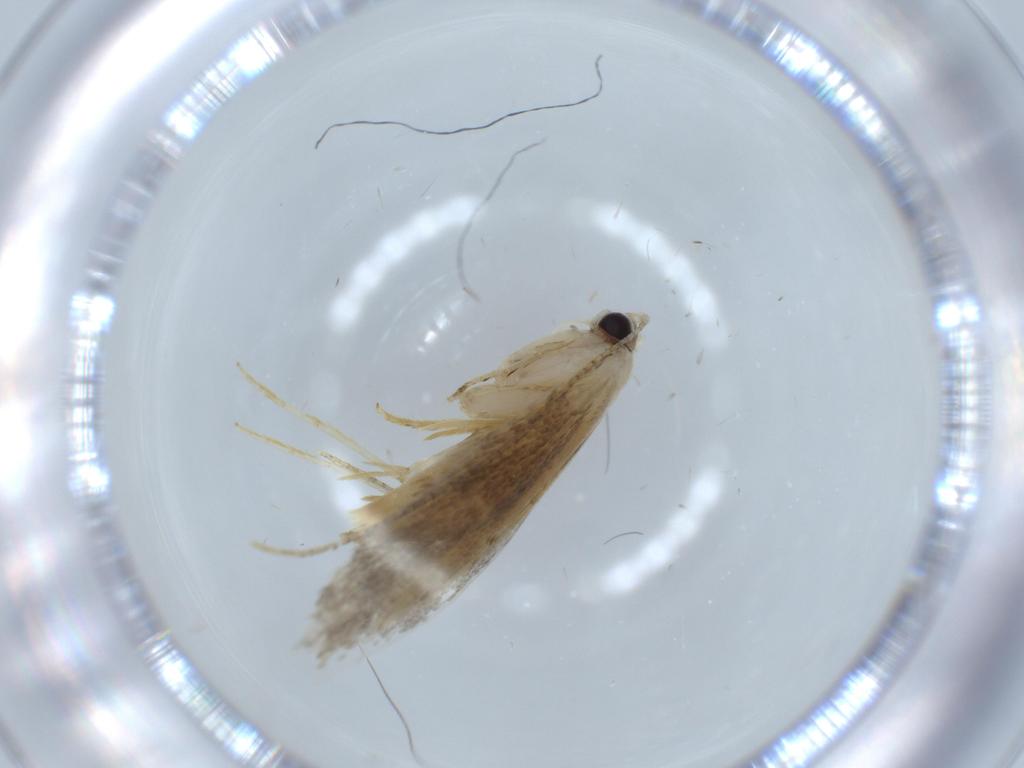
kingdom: Animalia
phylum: Arthropoda
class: Insecta
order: Lepidoptera
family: Tineidae
